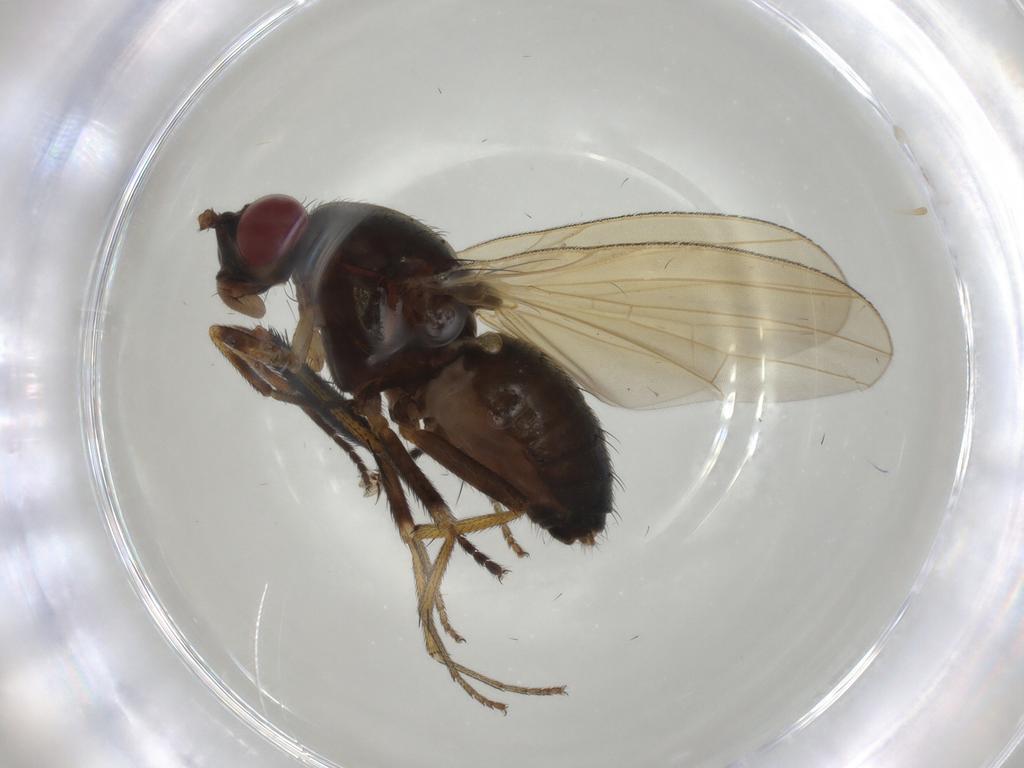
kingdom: Animalia
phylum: Arthropoda
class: Insecta
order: Diptera
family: Muscidae
